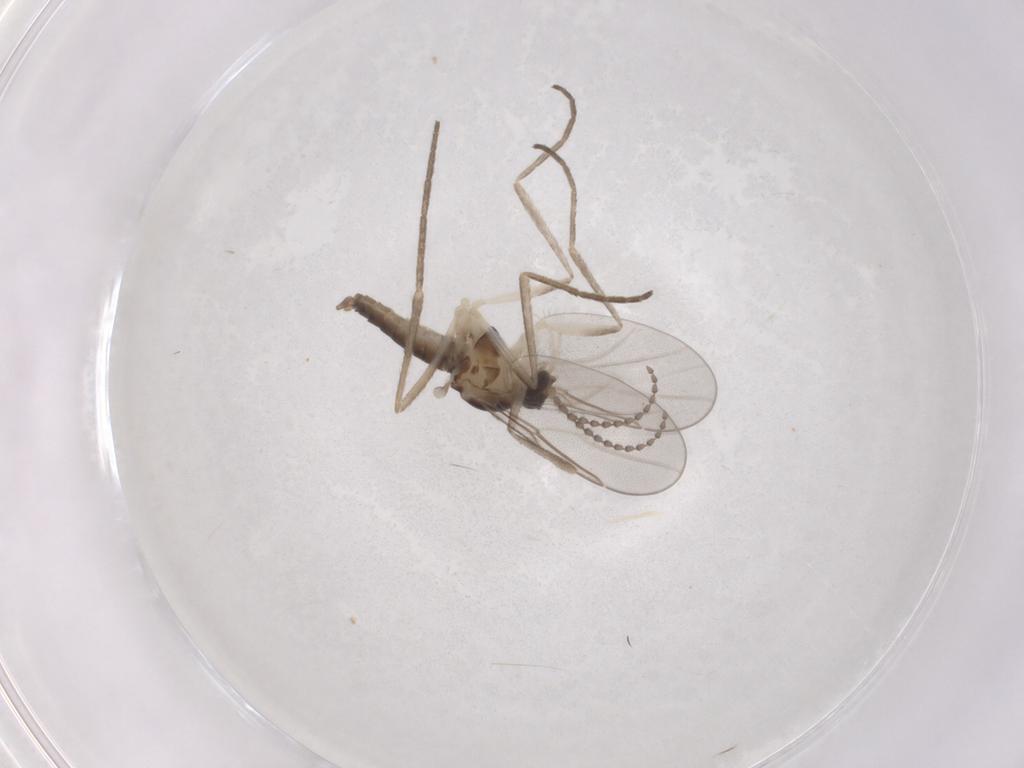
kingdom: Animalia
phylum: Arthropoda
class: Insecta
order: Diptera
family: Cecidomyiidae
